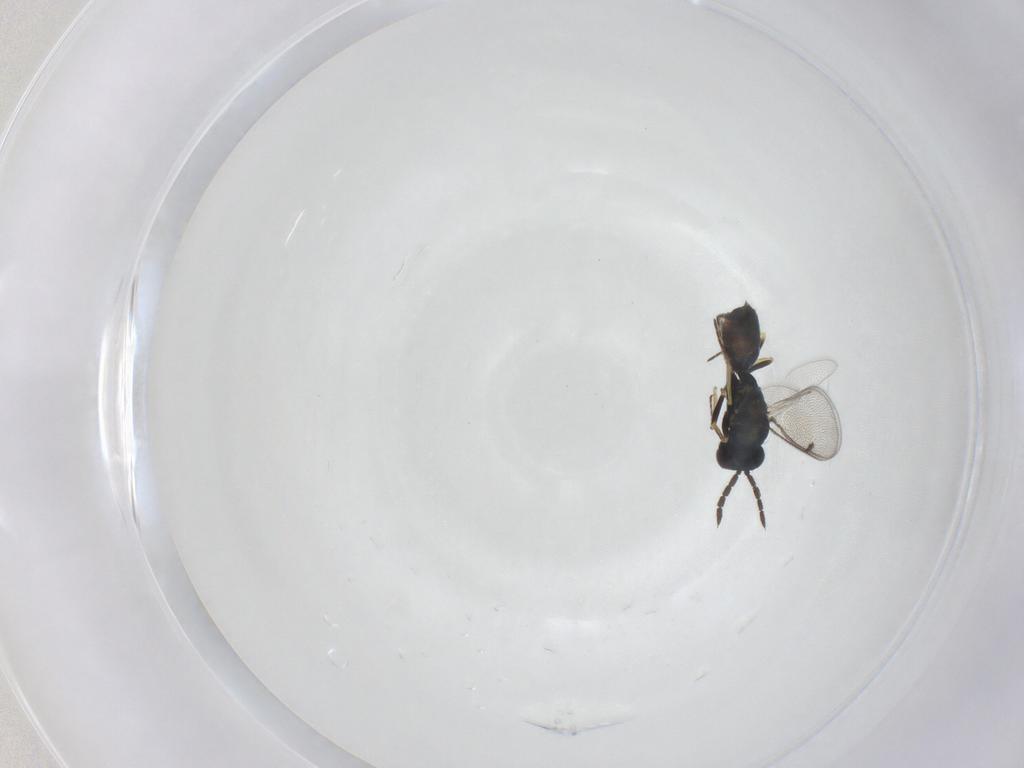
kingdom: Animalia
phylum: Arthropoda
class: Insecta
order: Hymenoptera
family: Eulophidae
